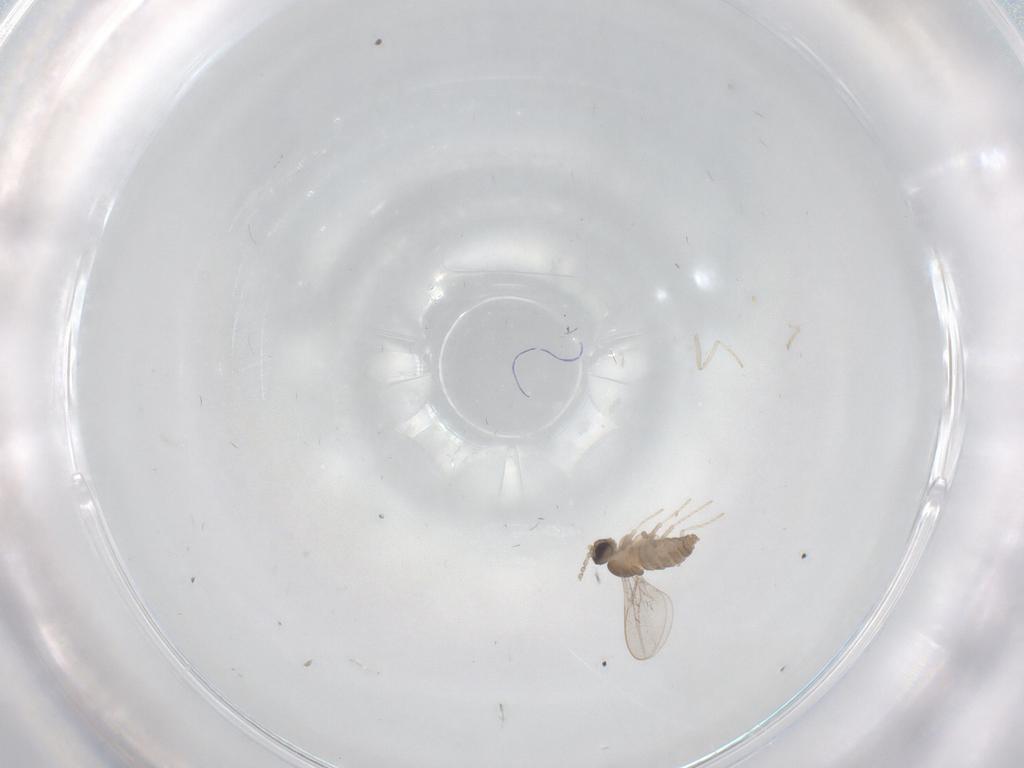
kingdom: Animalia
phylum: Arthropoda
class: Insecta
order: Diptera
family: Cecidomyiidae
